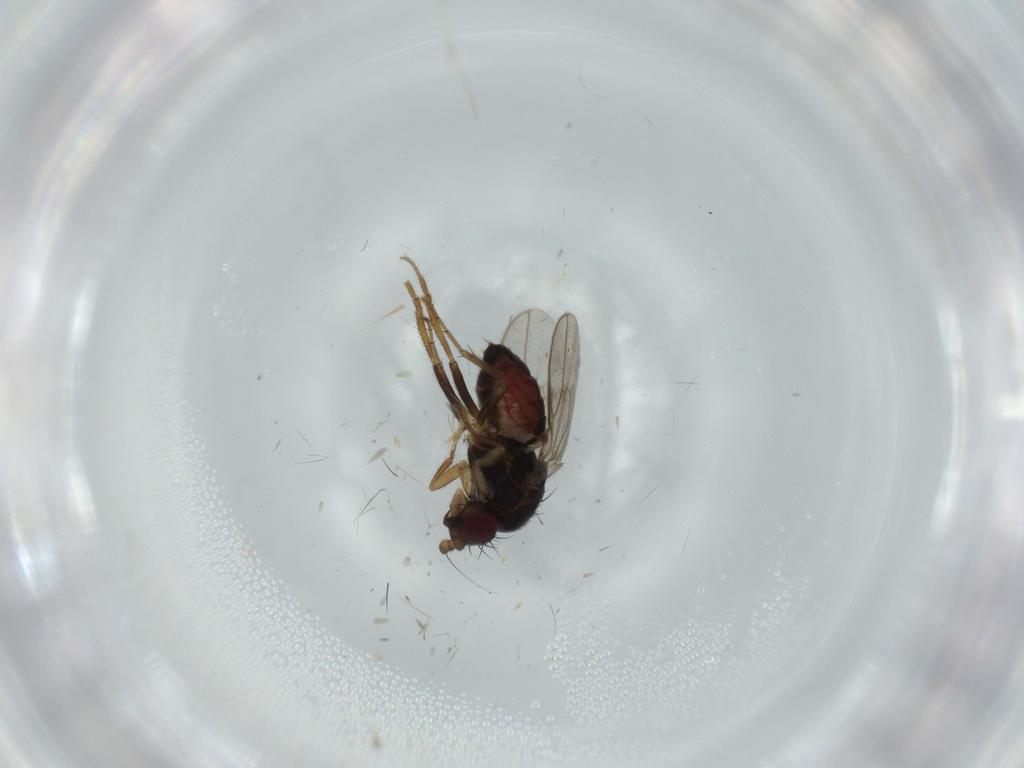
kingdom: Animalia
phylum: Arthropoda
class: Insecta
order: Diptera
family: Sphaeroceridae
